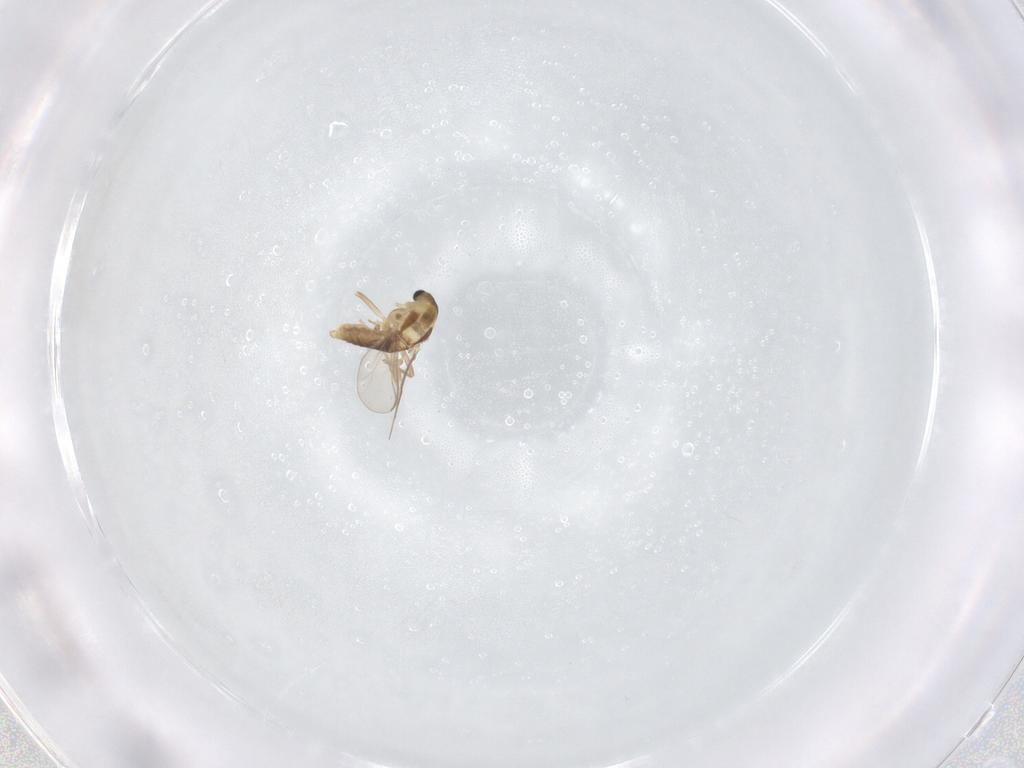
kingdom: Animalia
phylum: Arthropoda
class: Insecta
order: Diptera
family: Chironomidae
